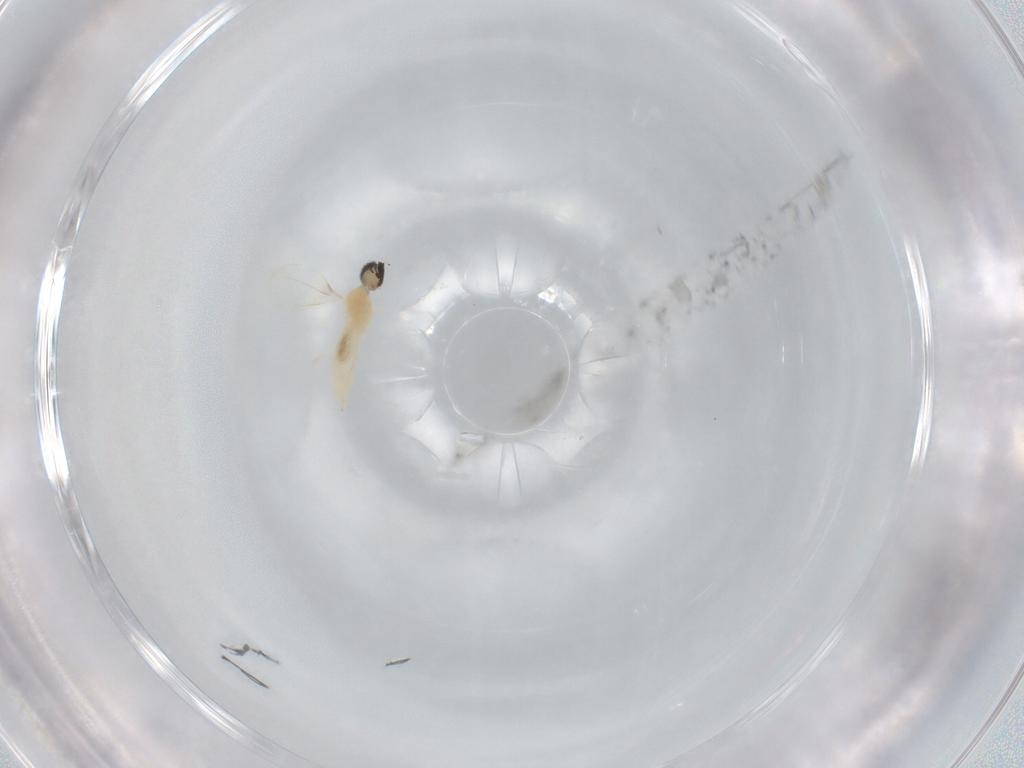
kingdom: Animalia
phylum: Arthropoda
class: Insecta
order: Diptera
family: Cecidomyiidae
